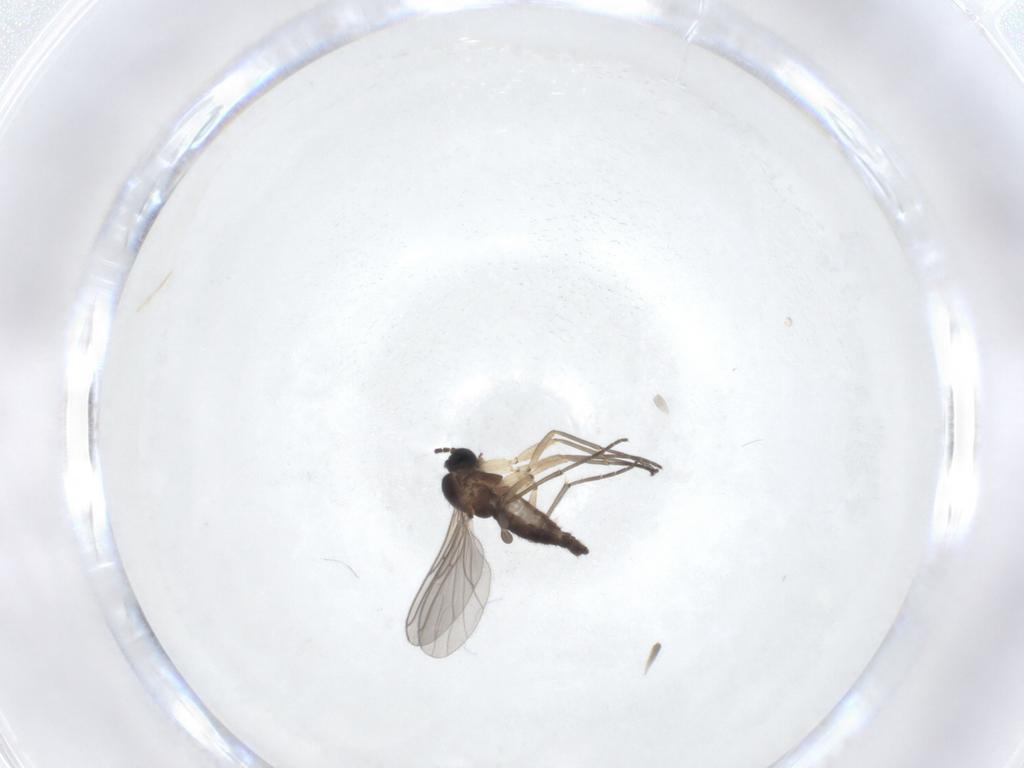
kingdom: Animalia
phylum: Arthropoda
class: Insecta
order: Diptera
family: Sciaridae
